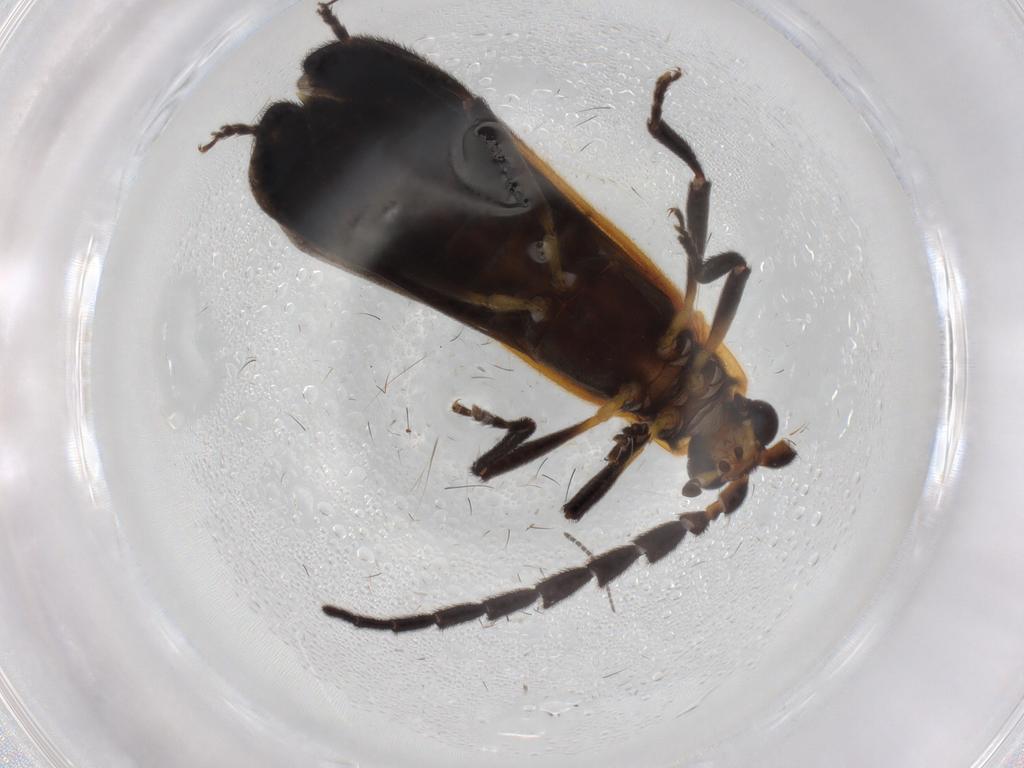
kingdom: Animalia
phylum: Arthropoda
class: Insecta
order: Coleoptera
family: Lycidae
